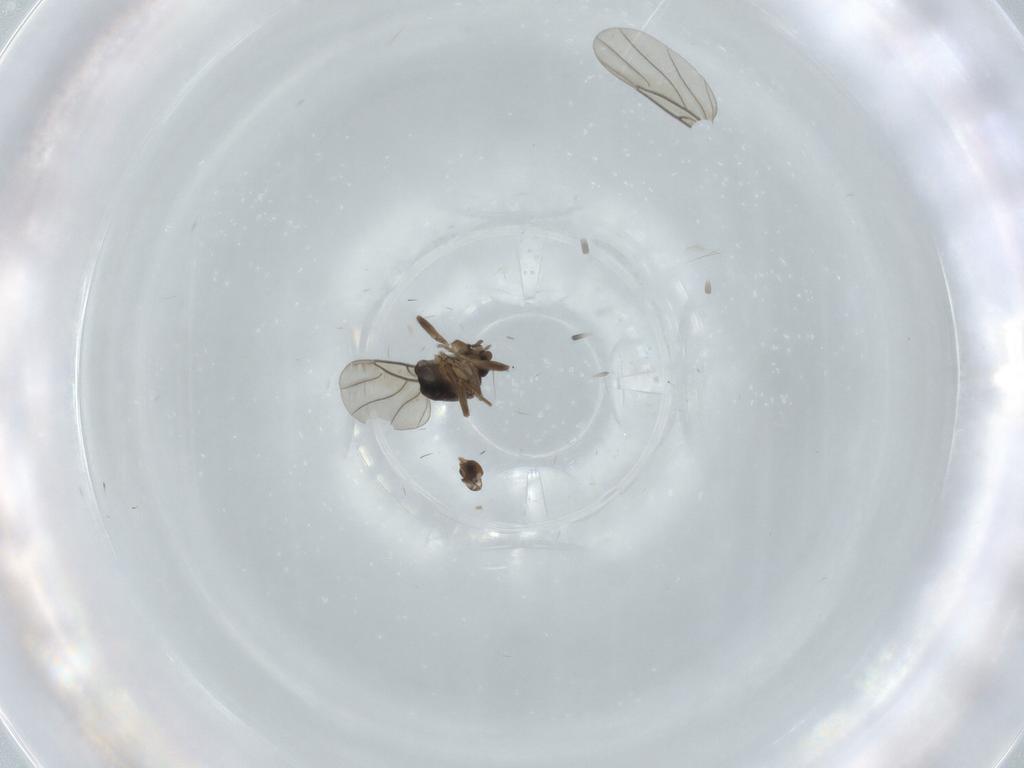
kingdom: Animalia
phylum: Arthropoda
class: Insecta
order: Diptera
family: Phoridae
